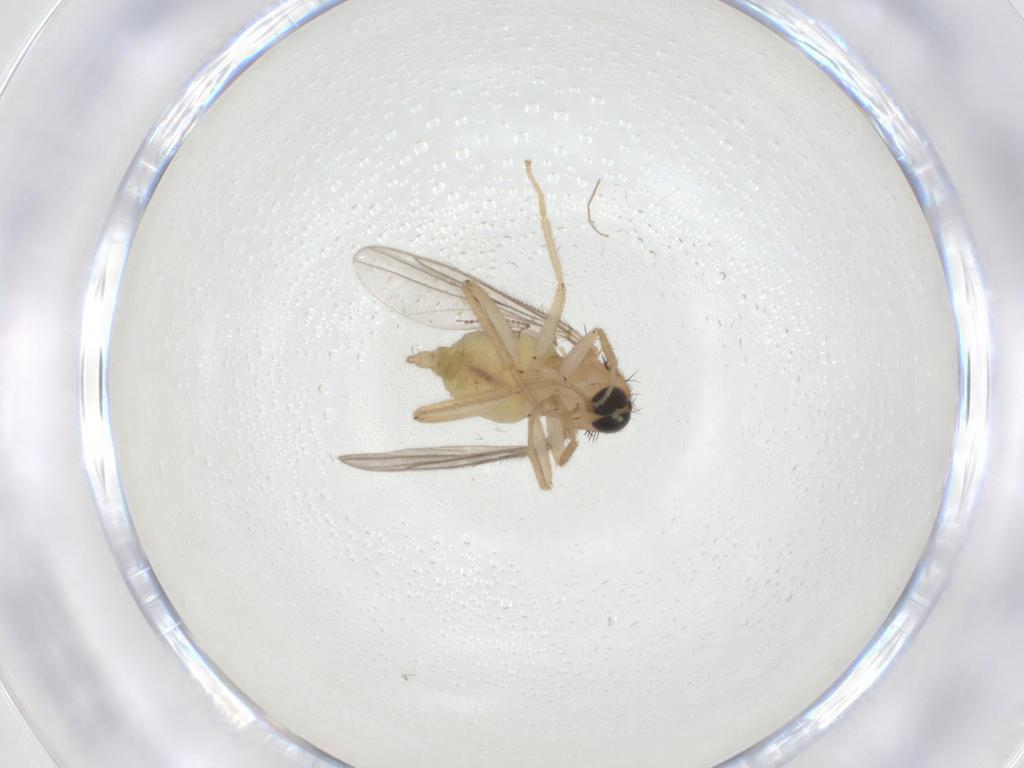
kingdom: Animalia
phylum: Arthropoda
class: Insecta
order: Diptera
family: Hybotidae
